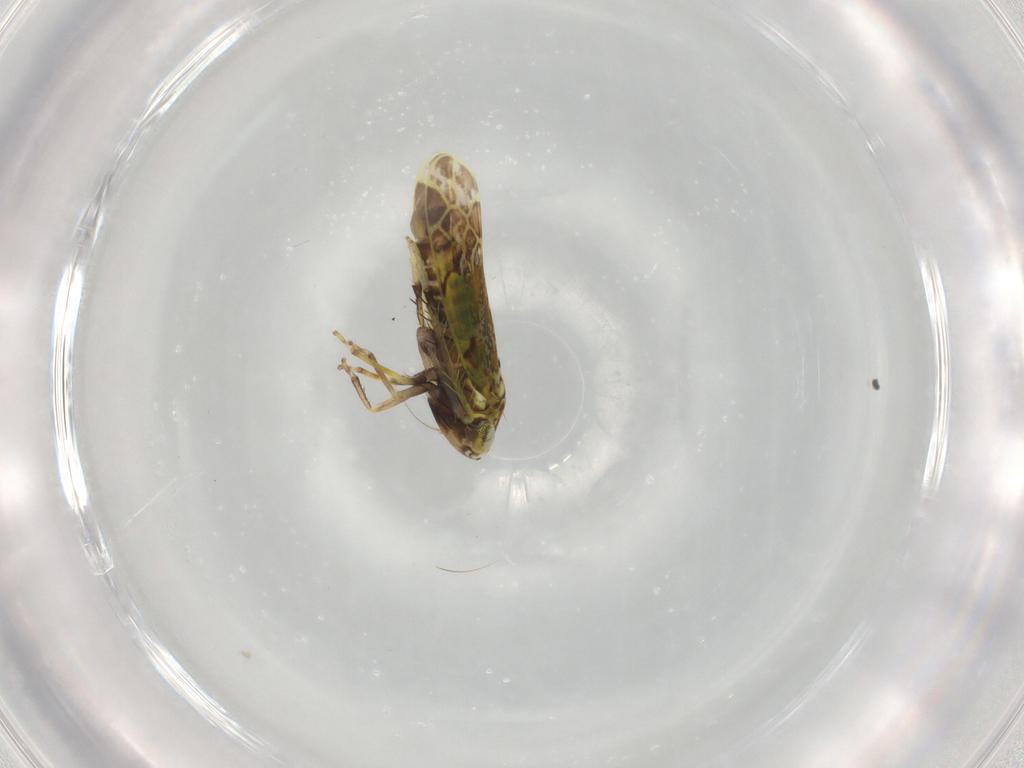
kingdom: Animalia
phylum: Arthropoda
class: Insecta
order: Hemiptera
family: Cicadellidae
